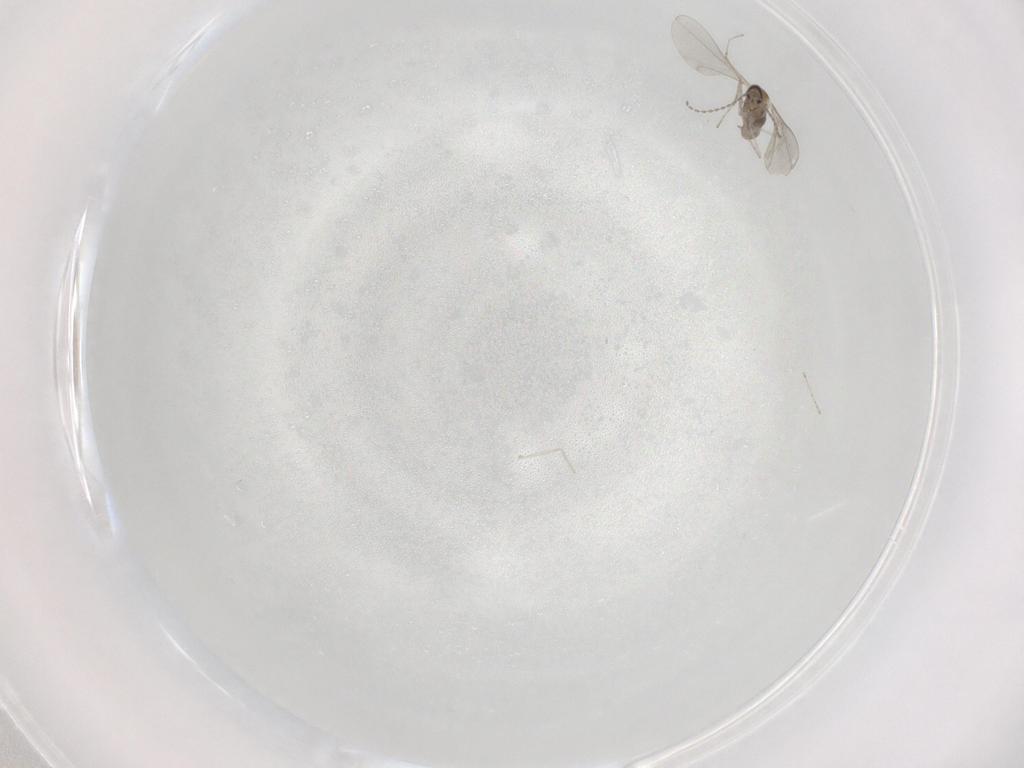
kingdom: Animalia
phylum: Arthropoda
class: Insecta
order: Diptera
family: Cecidomyiidae
